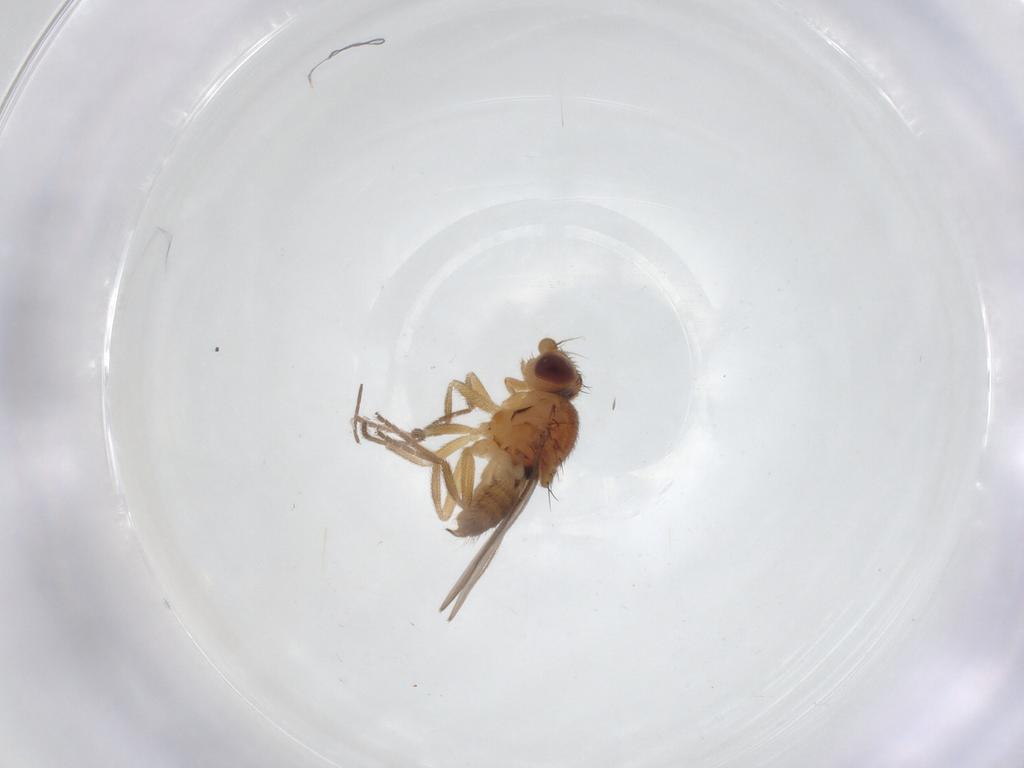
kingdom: Animalia
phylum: Arthropoda
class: Insecta
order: Diptera
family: Chloropidae
